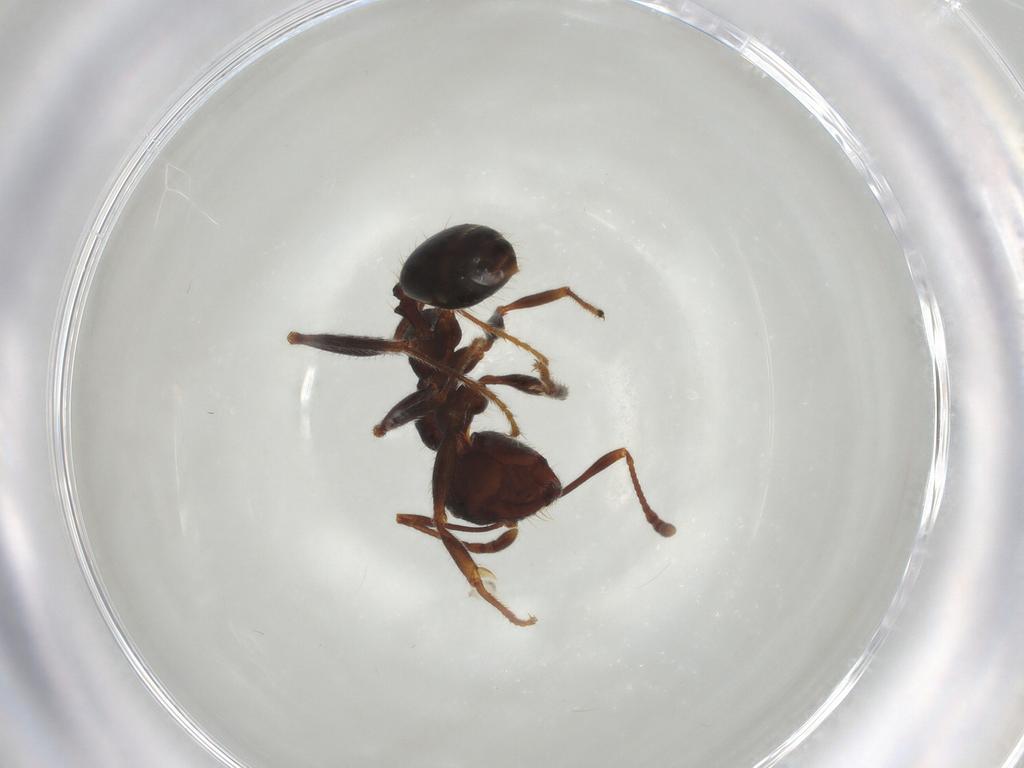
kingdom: Animalia
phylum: Arthropoda
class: Insecta
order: Hymenoptera
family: Formicidae
